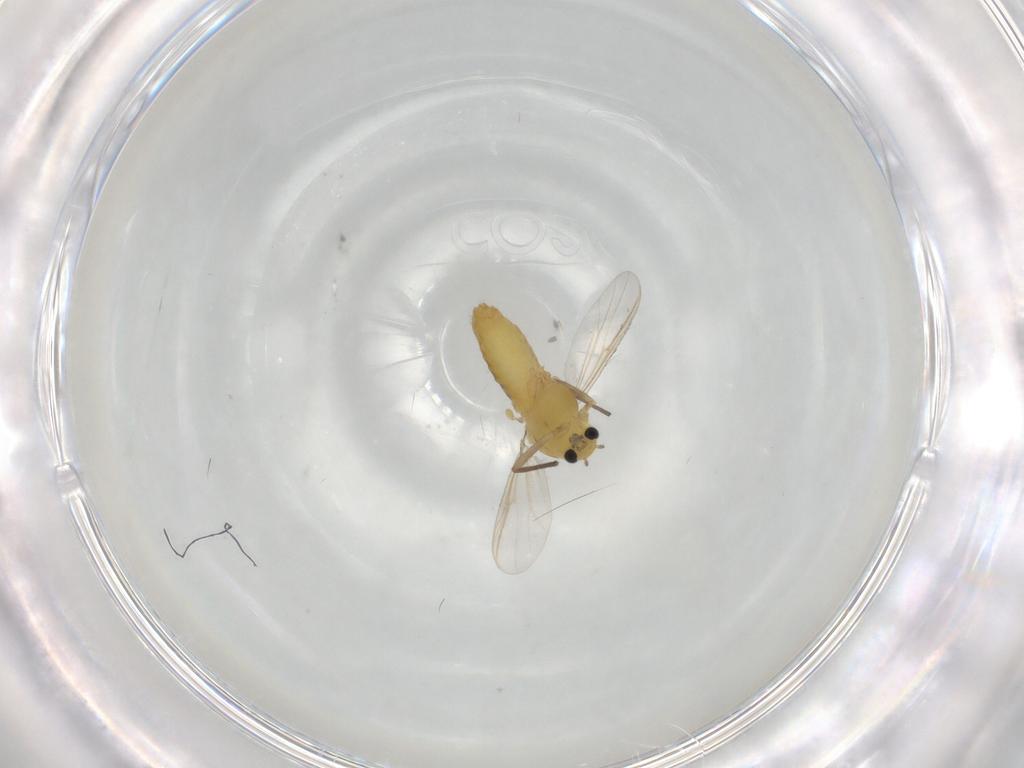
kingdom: Animalia
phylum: Arthropoda
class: Insecta
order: Diptera
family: Chironomidae
